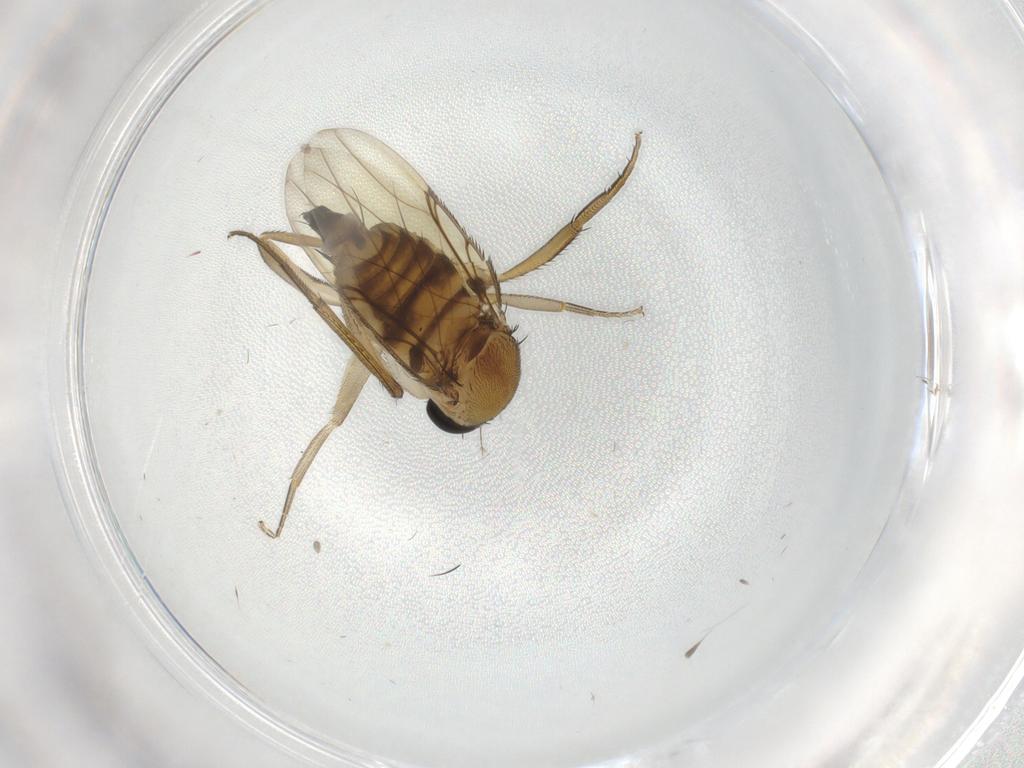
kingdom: Animalia
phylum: Arthropoda
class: Insecta
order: Diptera
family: Phoridae
